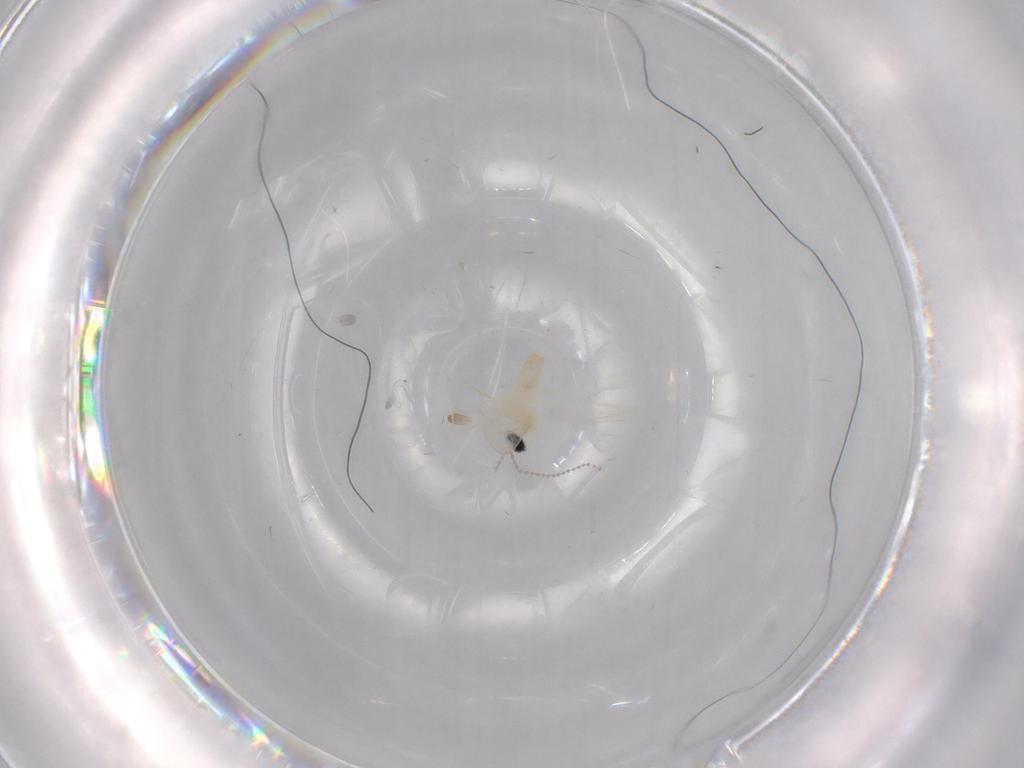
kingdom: Animalia
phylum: Arthropoda
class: Insecta
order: Diptera
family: Cecidomyiidae
